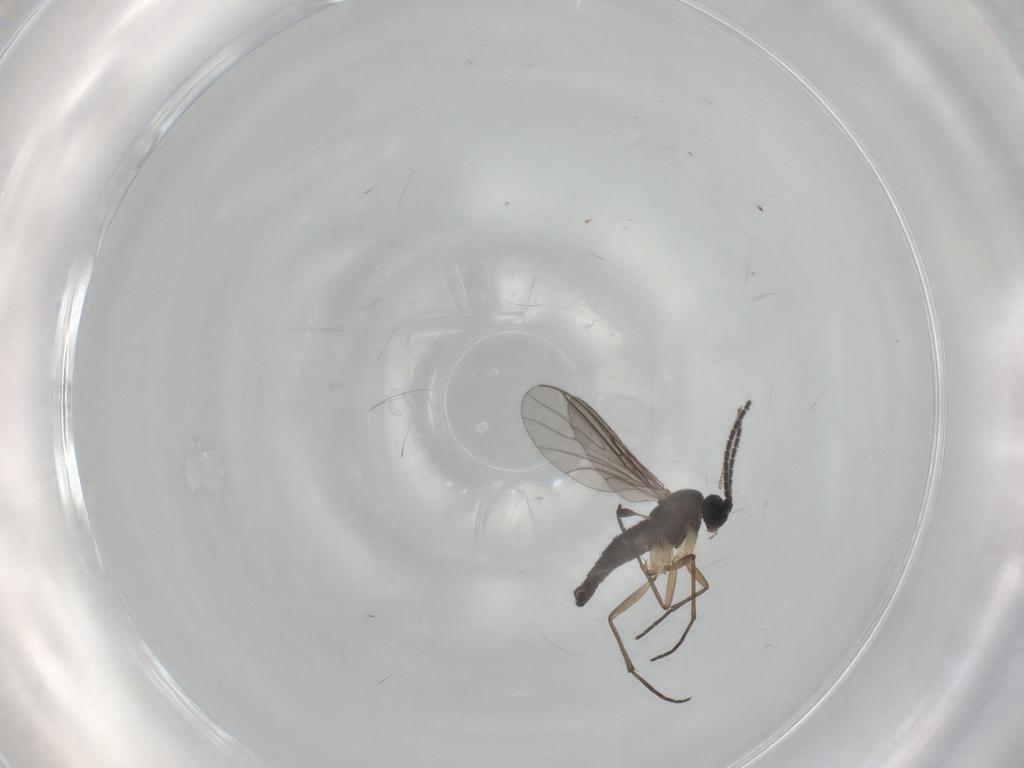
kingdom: Animalia
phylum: Arthropoda
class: Insecta
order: Diptera
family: Sciaridae
